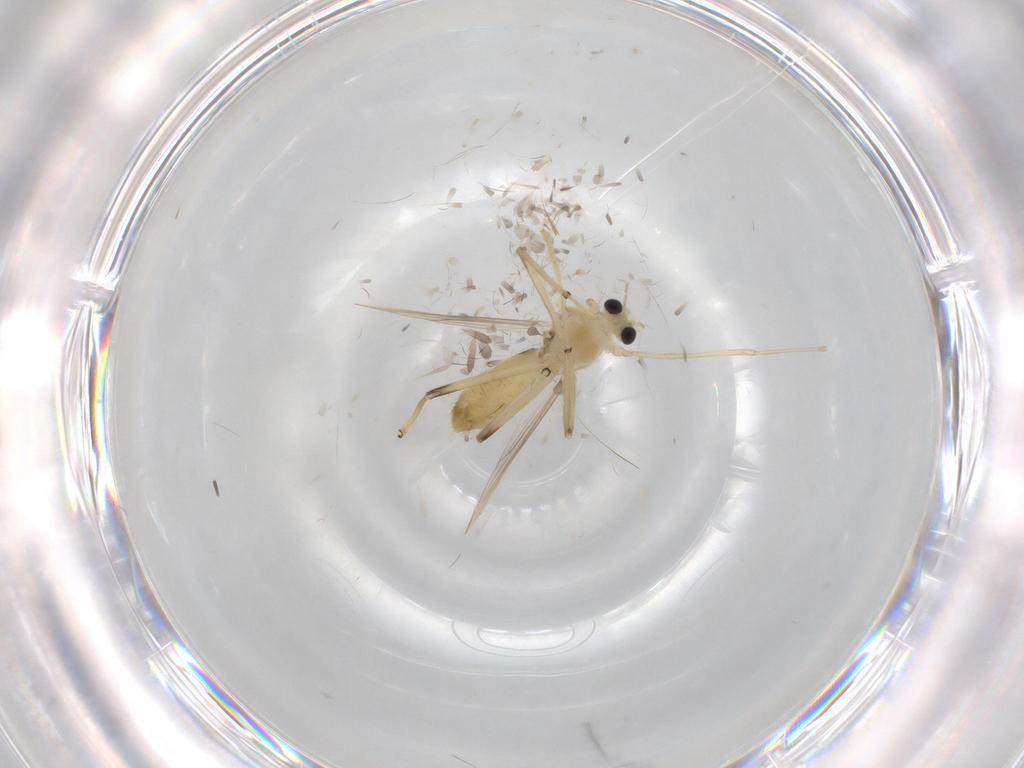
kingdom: Animalia
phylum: Arthropoda
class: Insecta
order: Diptera
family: Chironomidae
